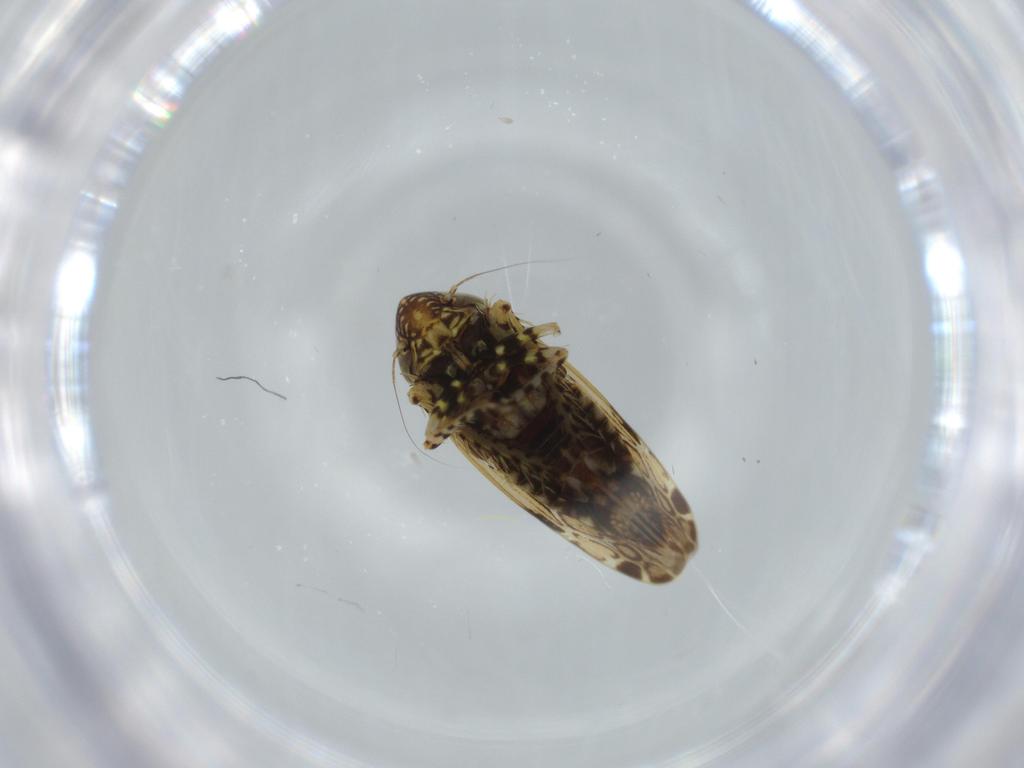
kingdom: Animalia
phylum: Arthropoda
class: Insecta
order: Hemiptera
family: Cicadellidae
